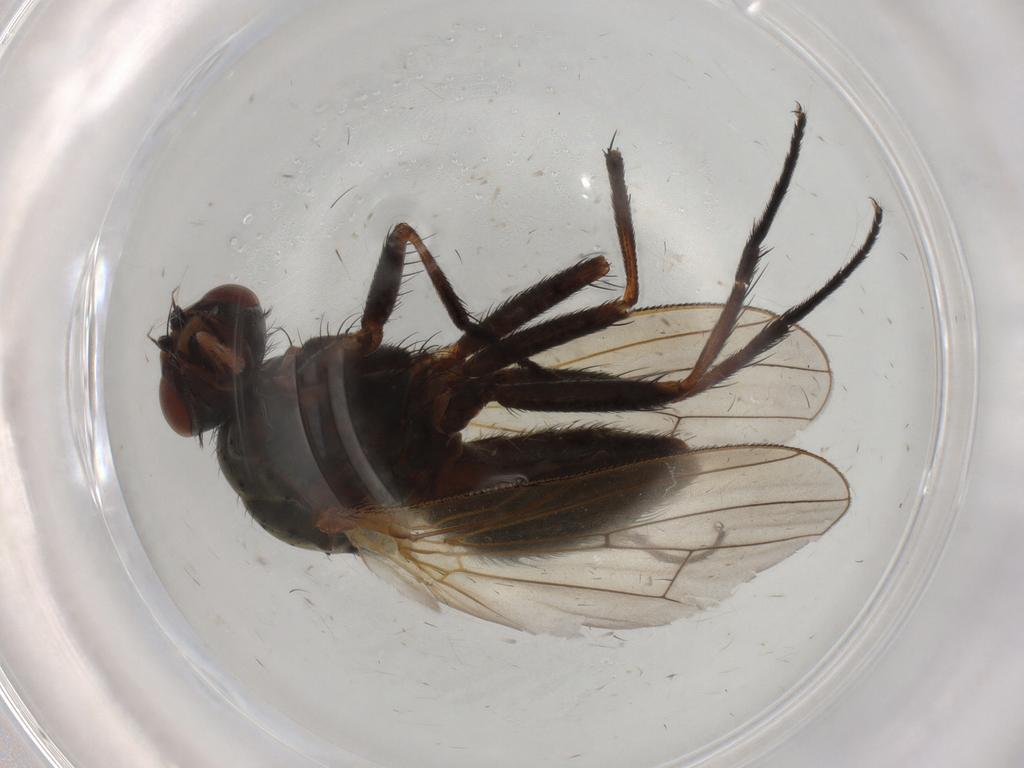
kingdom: Animalia
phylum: Arthropoda
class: Insecta
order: Diptera
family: Anthomyiidae
